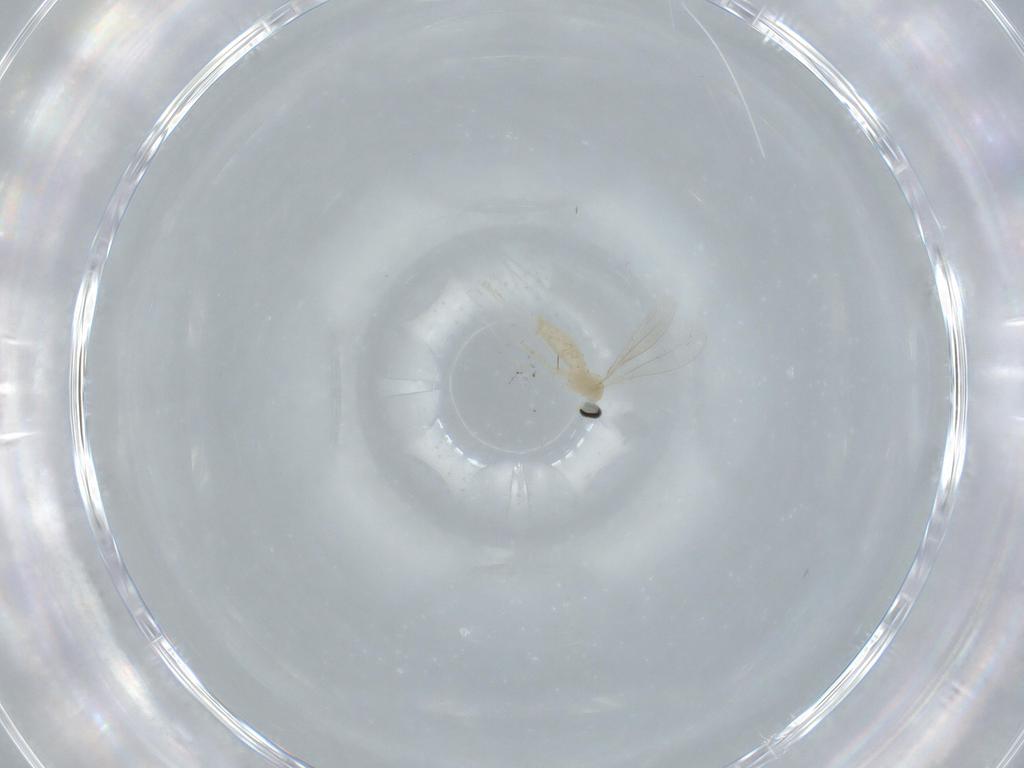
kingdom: Animalia
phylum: Arthropoda
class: Insecta
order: Diptera
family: Cecidomyiidae
